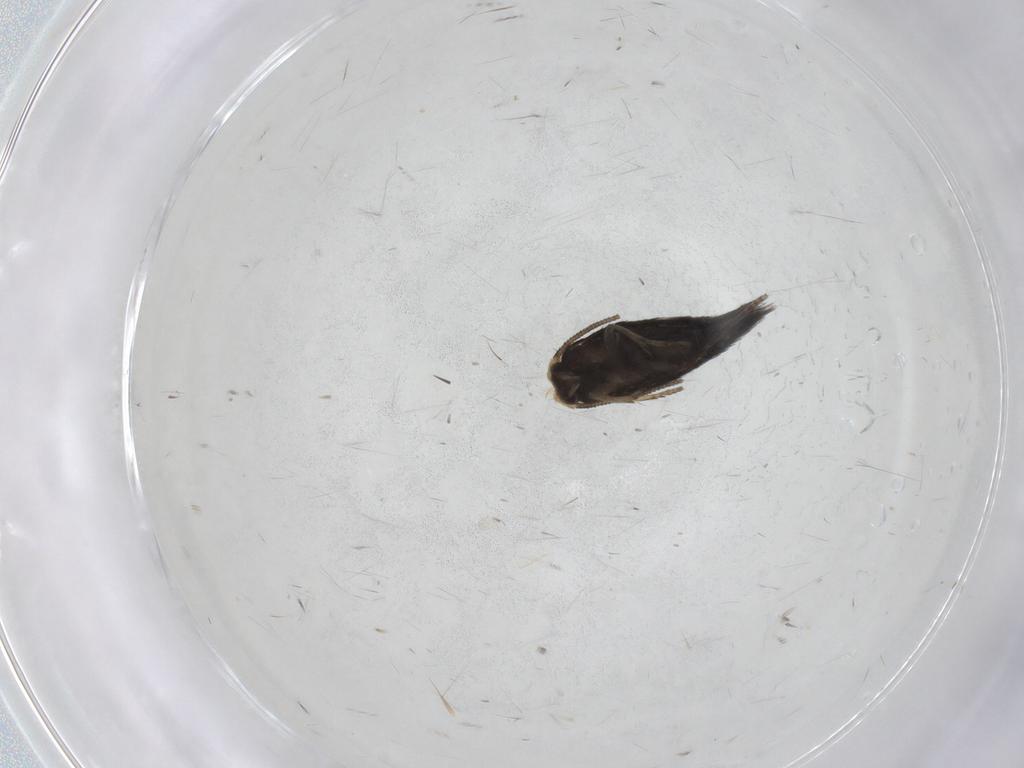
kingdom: Animalia
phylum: Arthropoda
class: Insecta
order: Lepidoptera
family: Nepticulidae
